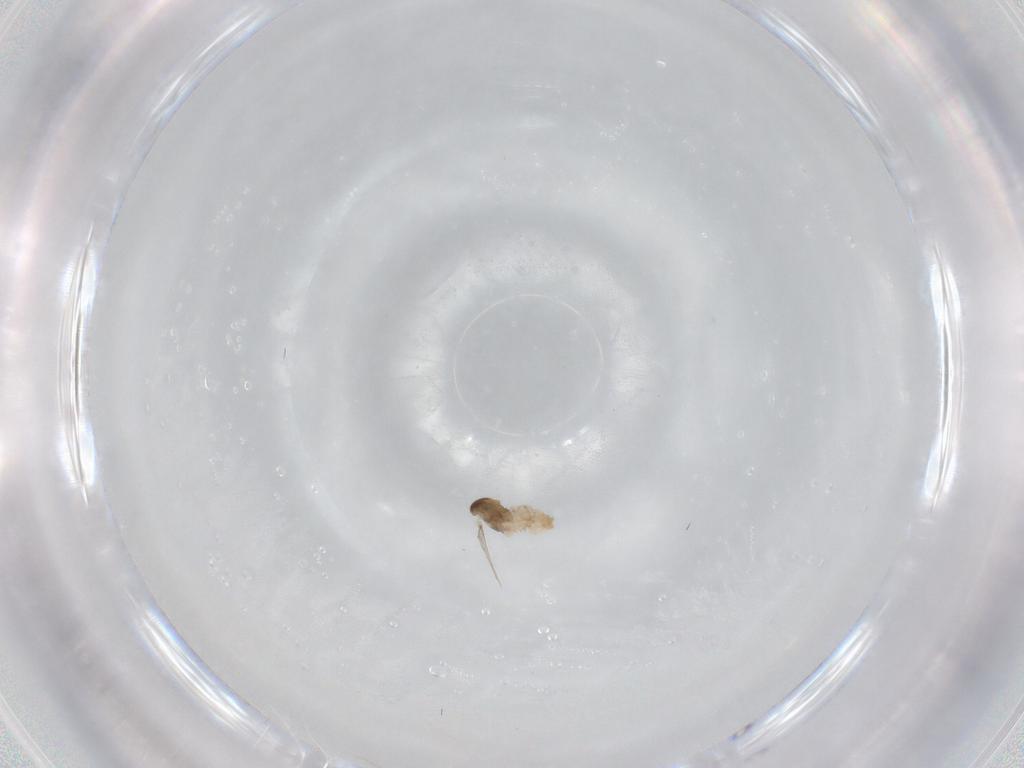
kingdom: Animalia
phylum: Arthropoda
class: Insecta
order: Diptera
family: Cecidomyiidae
